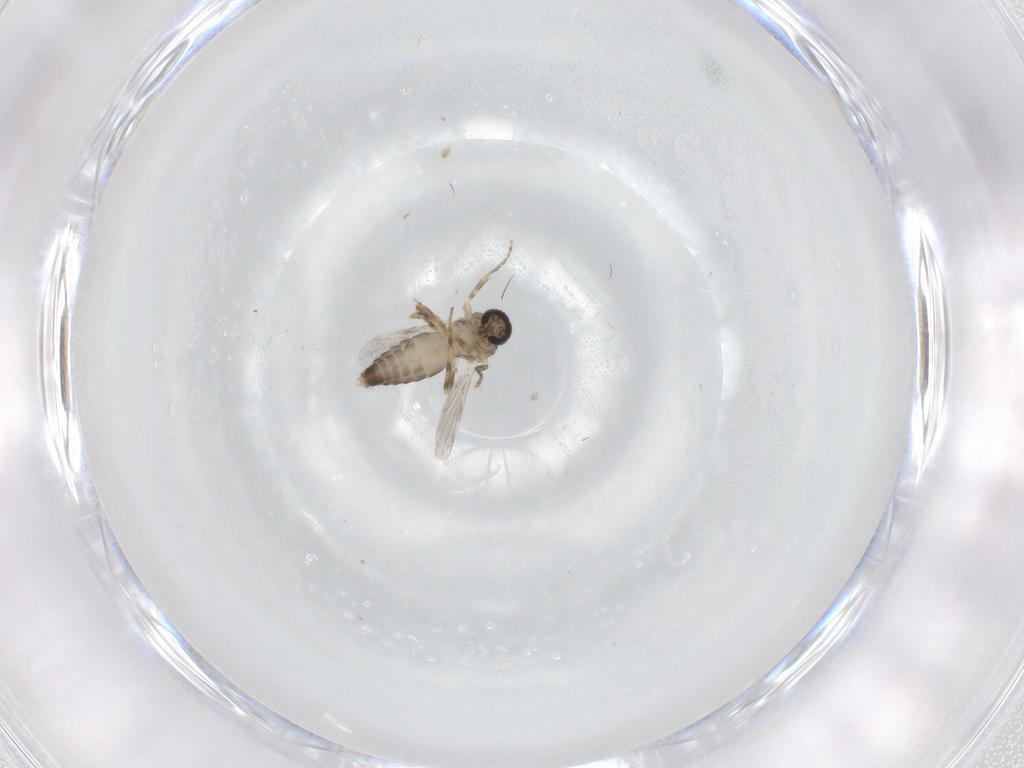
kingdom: Animalia
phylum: Arthropoda
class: Insecta
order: Diptera
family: Ceratopogonidae
